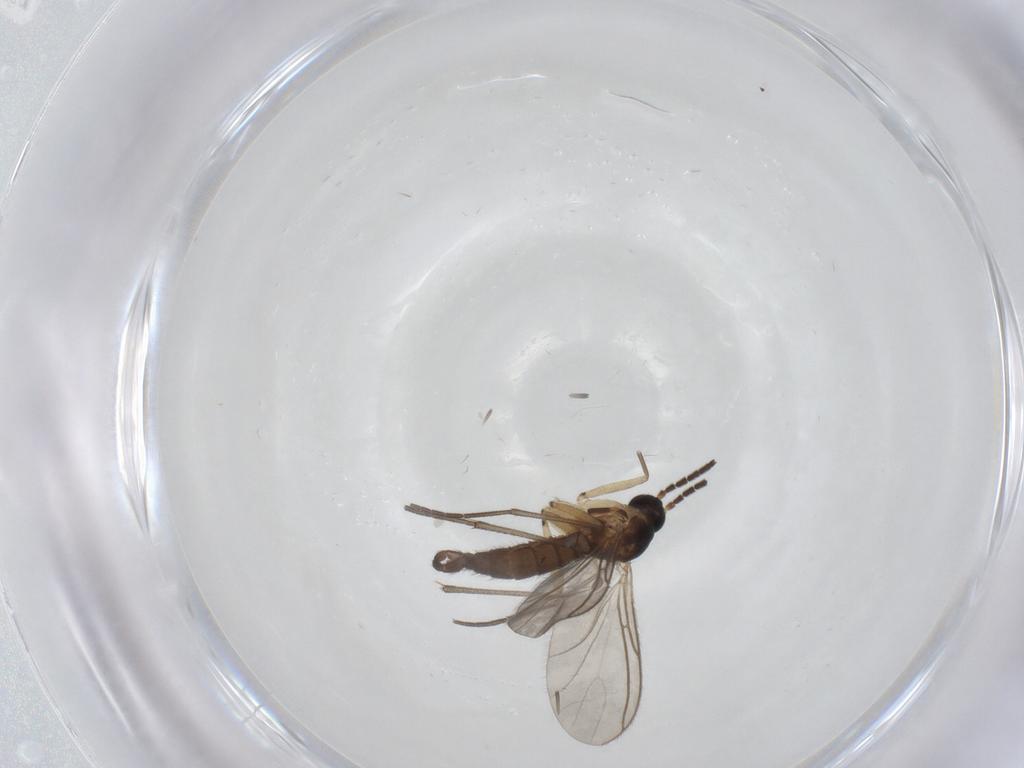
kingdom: Animalia
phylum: Arthropoda
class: Insecta
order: Diptera
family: Sciaridae
